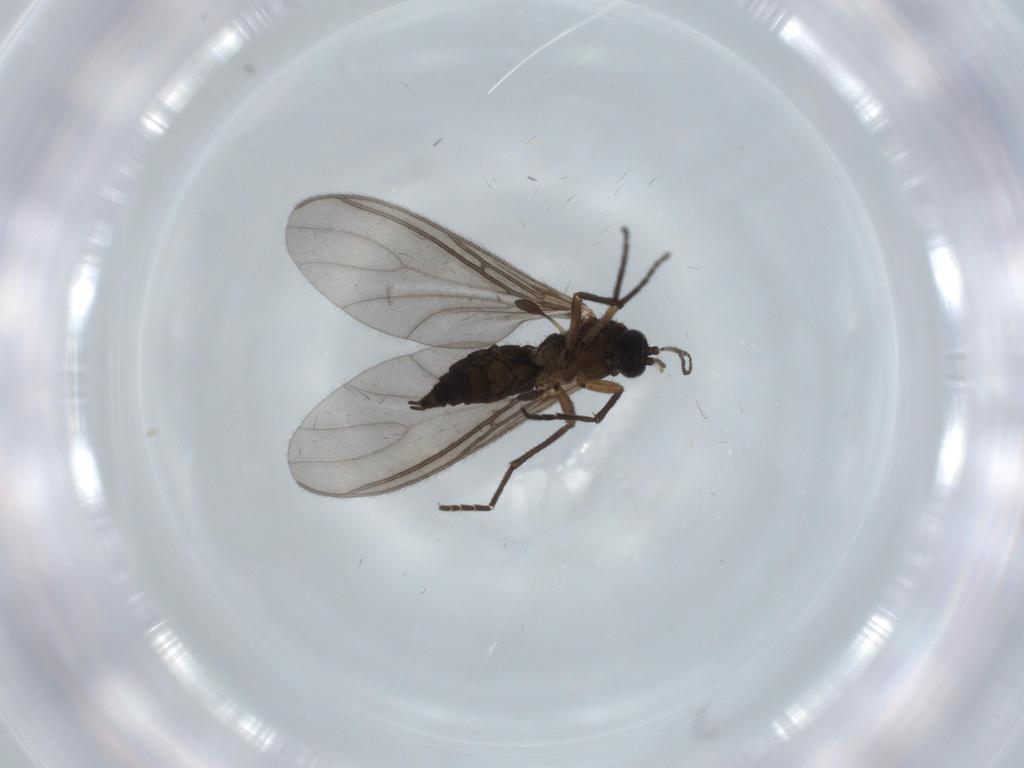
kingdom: Animalia
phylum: Arthropoda
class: Insecta
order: Diptera
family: Sciaridae
